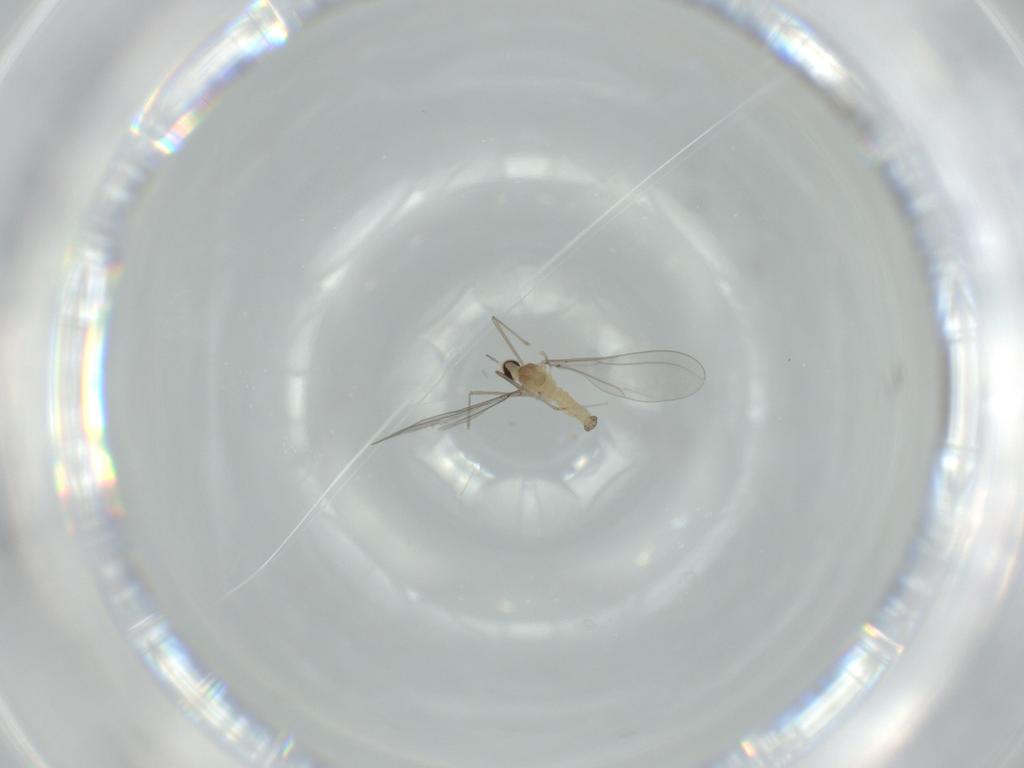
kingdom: Animalia
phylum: Arthropoda
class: Insecta
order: Diptera
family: Cecidomyiidae
